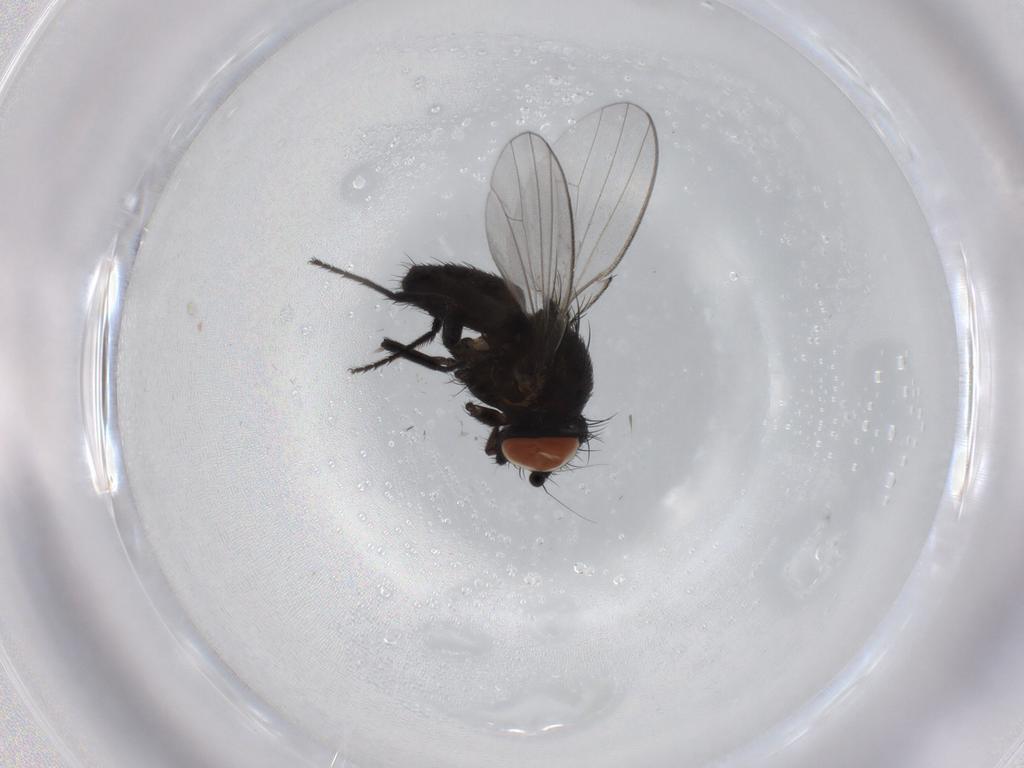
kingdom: Animalia
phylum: Arthropoda
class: Insecta
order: Diptera
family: Milichiidae
